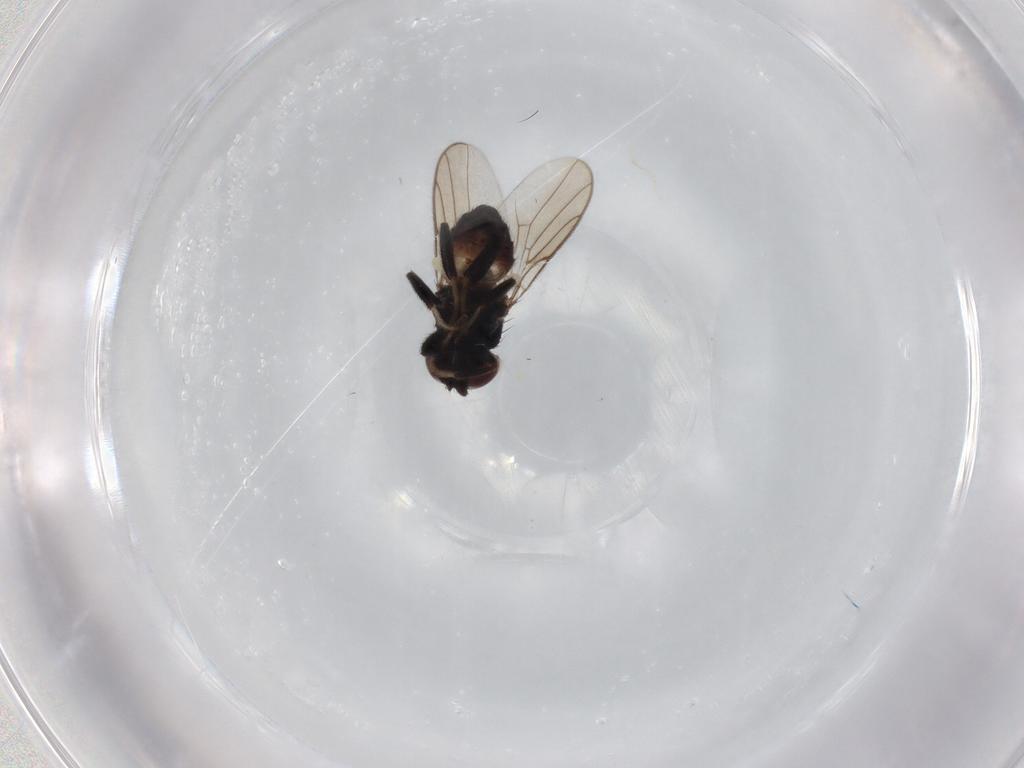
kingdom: Animalia
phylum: Arthropoda
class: Insecta
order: Diptera
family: Chloropidae
